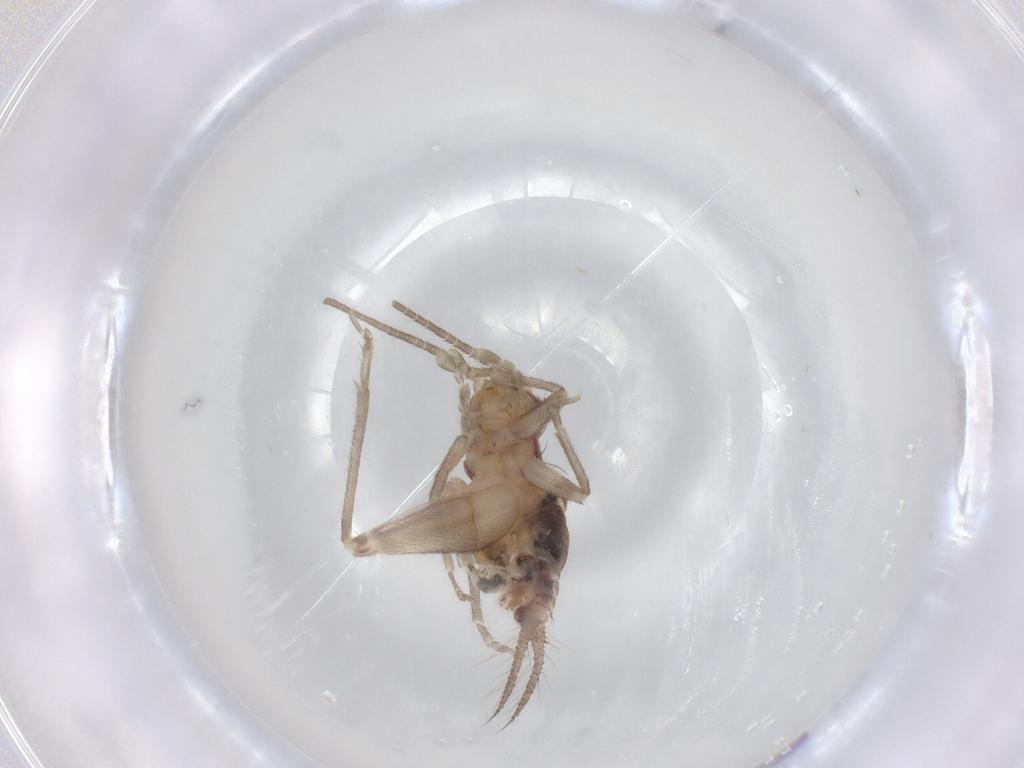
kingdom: Animalia
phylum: Arthropoda
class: Insecta
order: Orthoptera
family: Trigonidiidae
